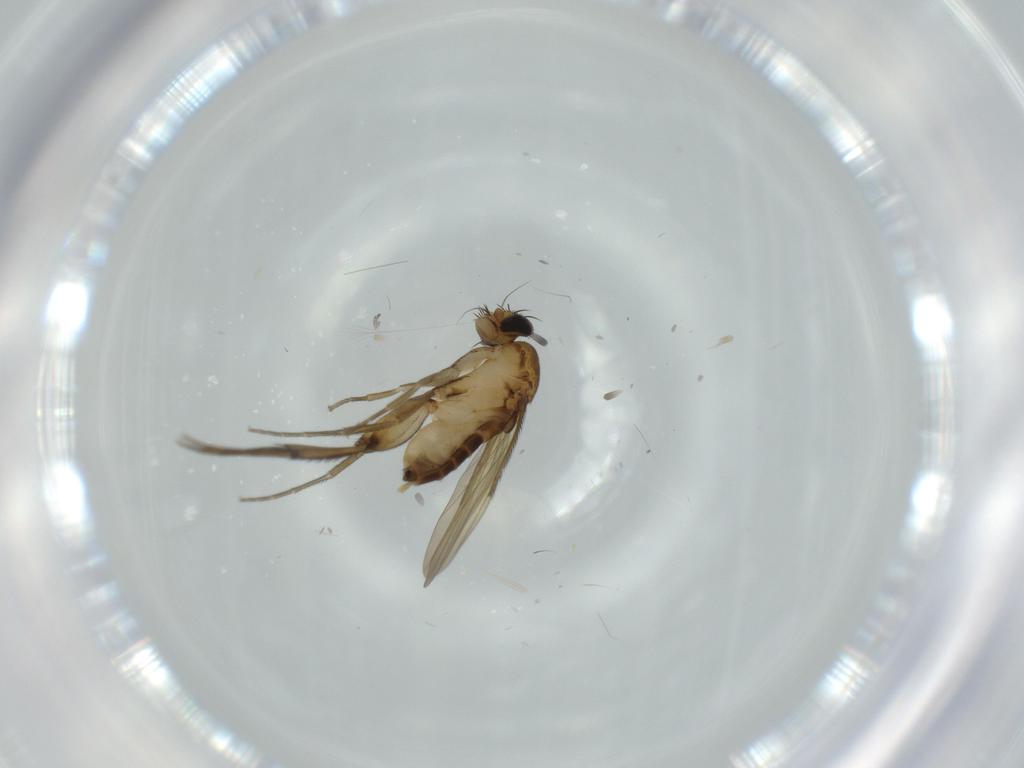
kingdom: Animalia
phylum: Arthropoda
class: Insecta
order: Diptera
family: Phoridae
